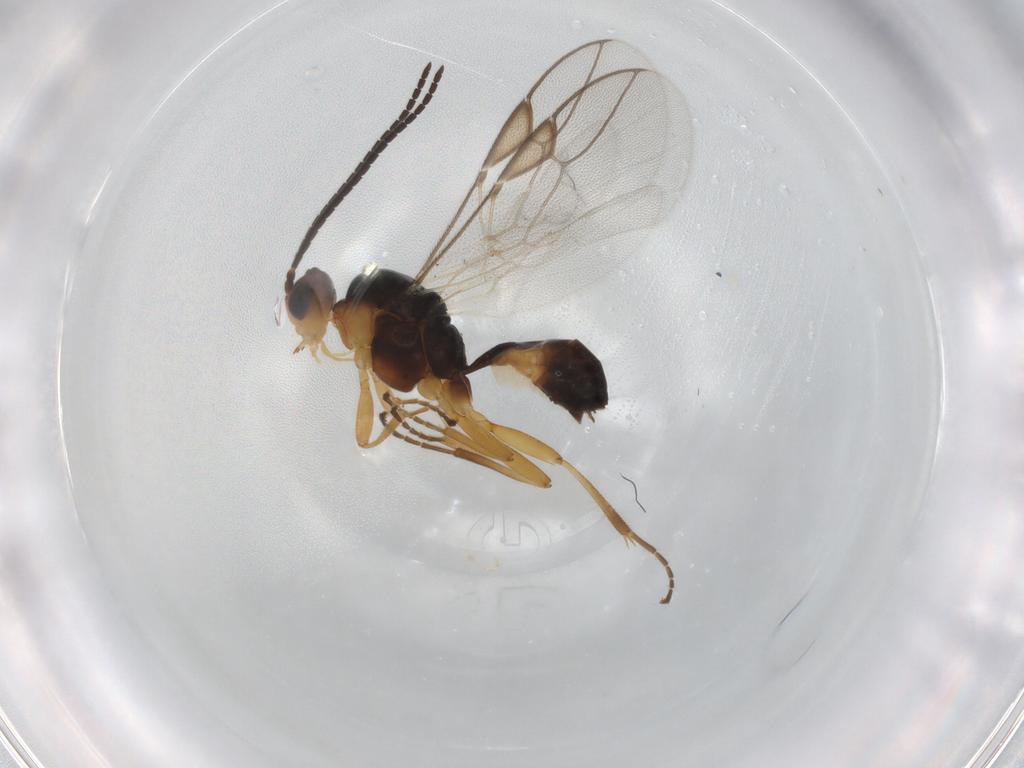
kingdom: Animalia
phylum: Arthropoda
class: Insecta
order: Hymenoptera
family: Braconidae
